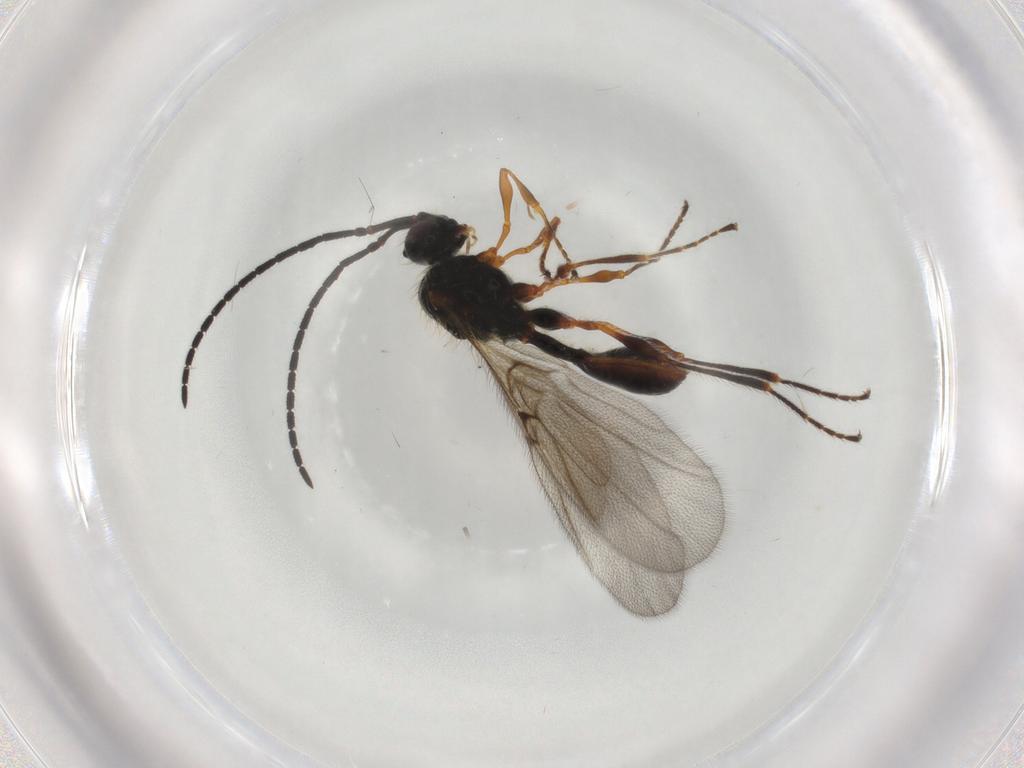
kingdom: Animalia
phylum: Arthropoda
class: Insecta
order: Hymenoptera
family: Diapriidae
